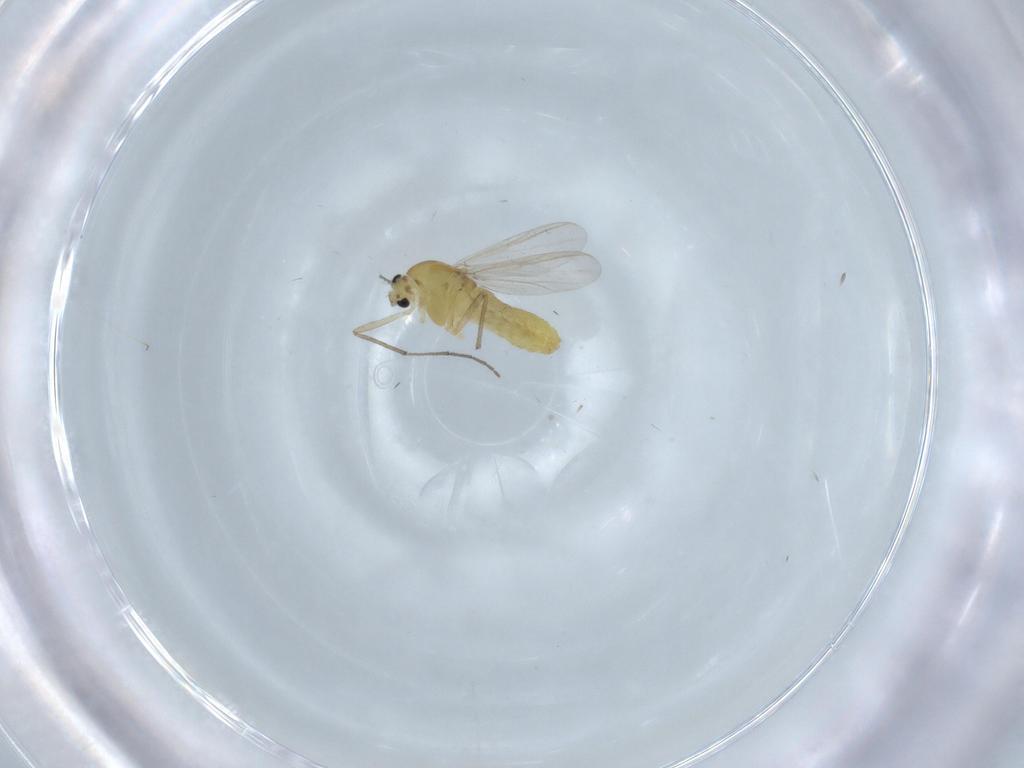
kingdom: Animalia
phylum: Arthropoda
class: Insecta
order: Diptera
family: Chironomidae
